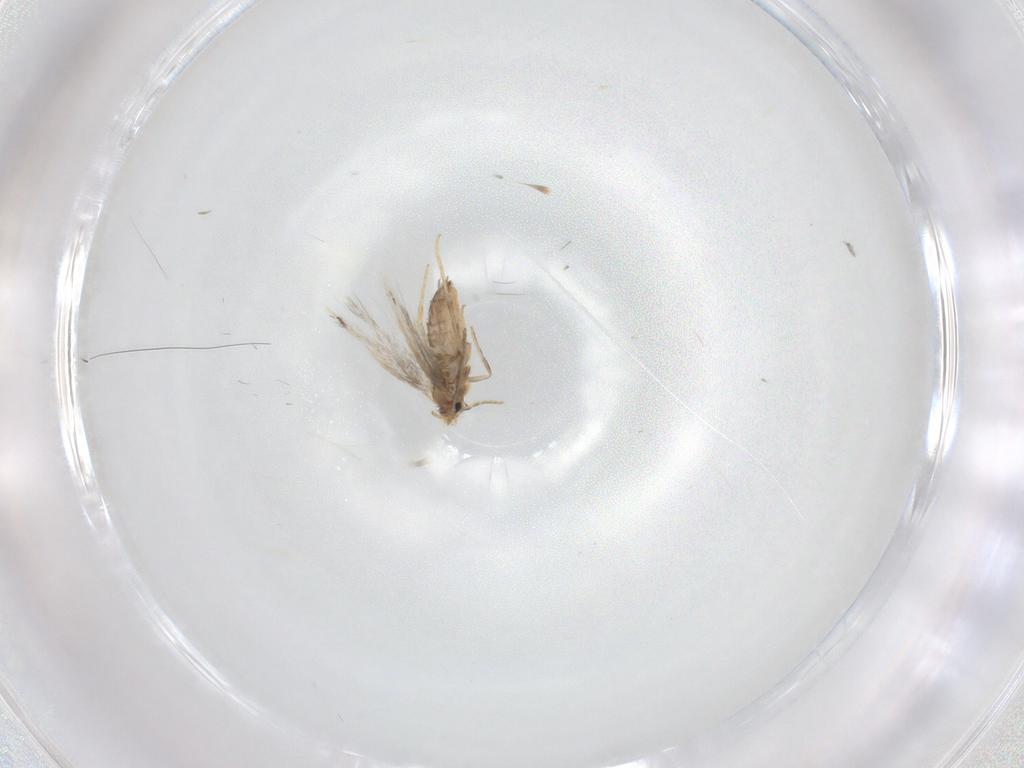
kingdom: Animalia
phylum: Arthropoda
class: Insecta
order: Lepidoptera
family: Nepticulidae
